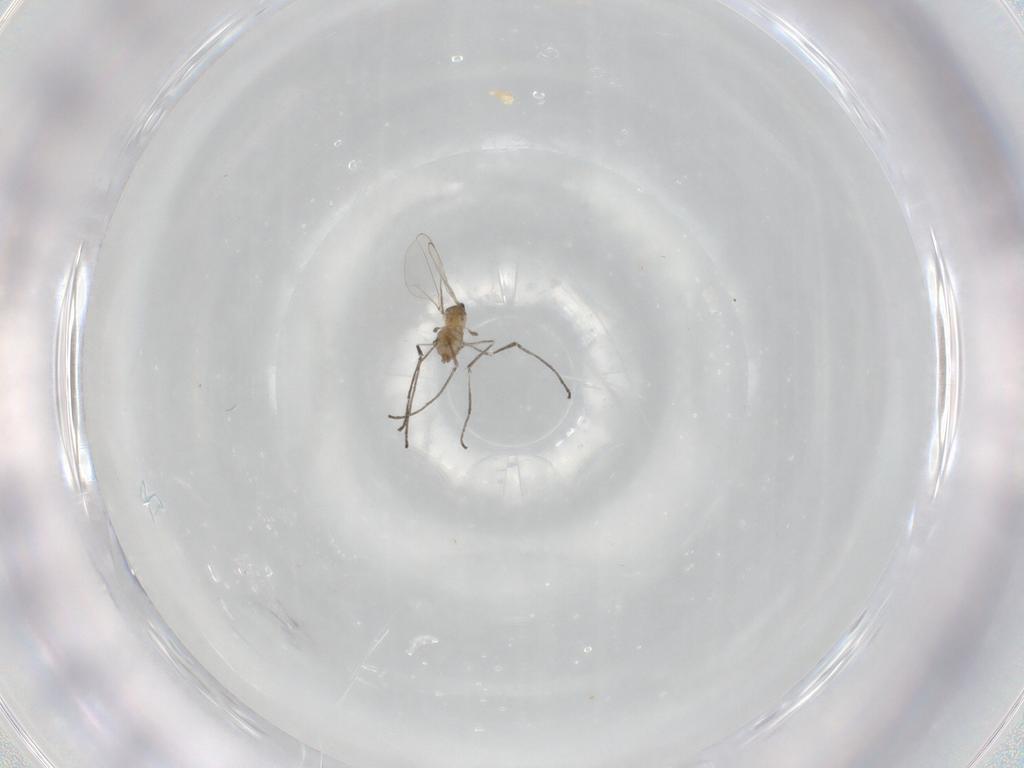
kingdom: Animalia
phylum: Arthropoda
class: Insecta
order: Diptera
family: Cecidomyiidae
